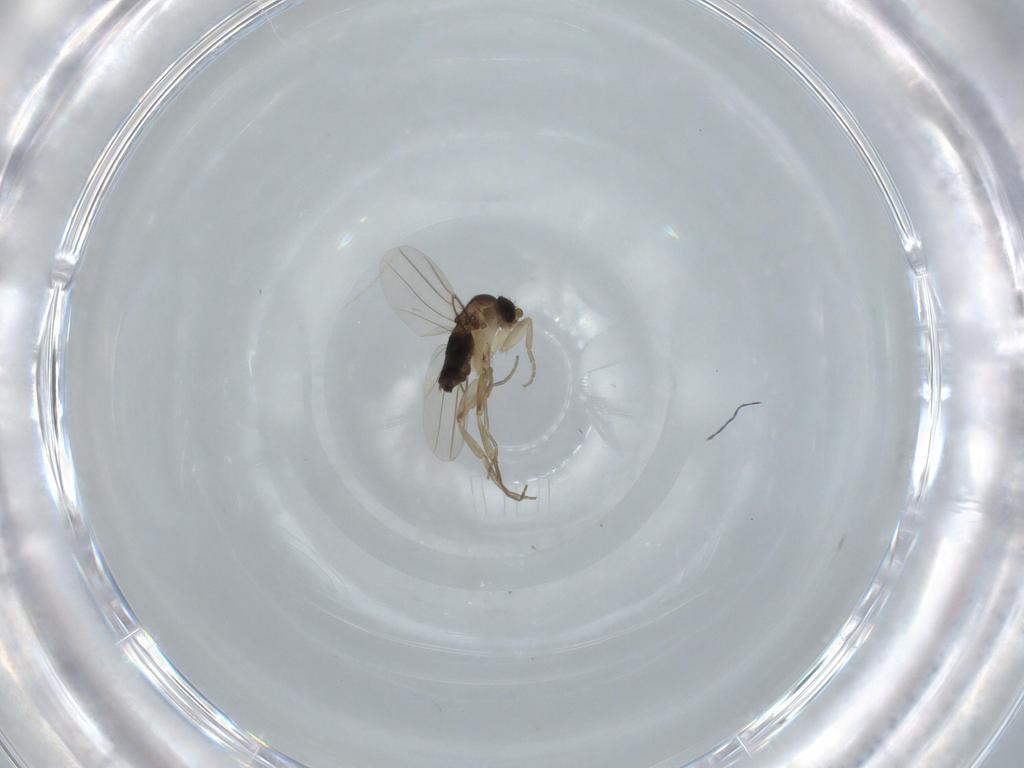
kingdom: Animalia
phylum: Arthropoda
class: Insecta
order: Diptera
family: Phoridae
